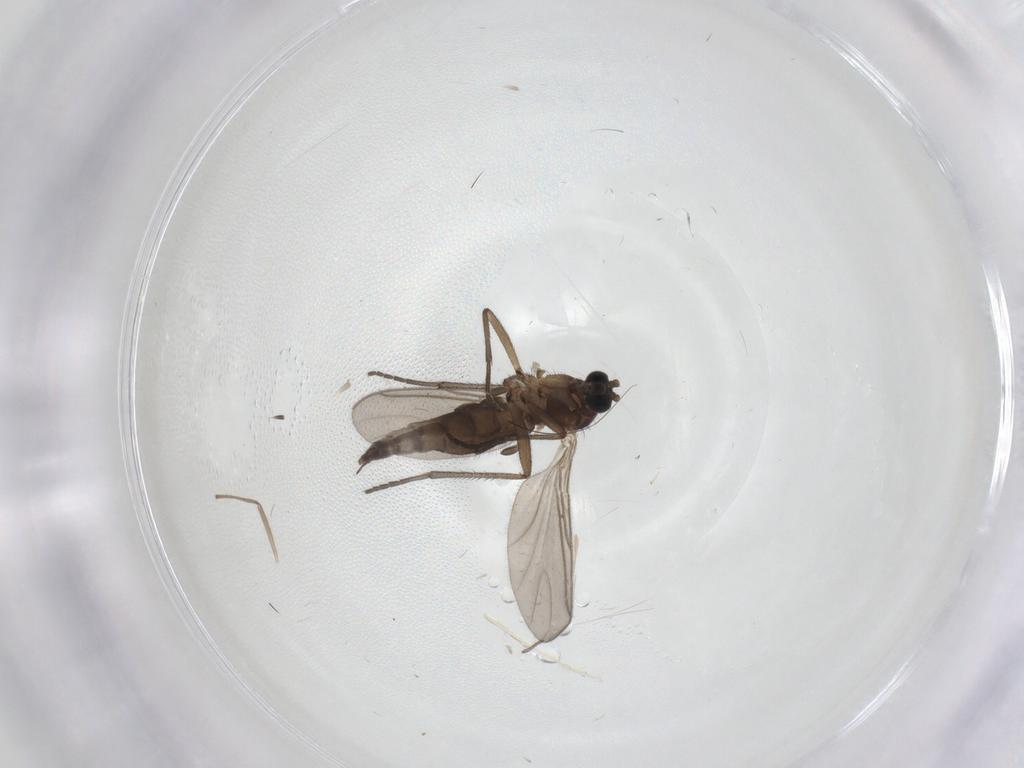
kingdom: Animalia
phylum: Arthropoda
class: Insecta
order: Diptera
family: Sciaridae
